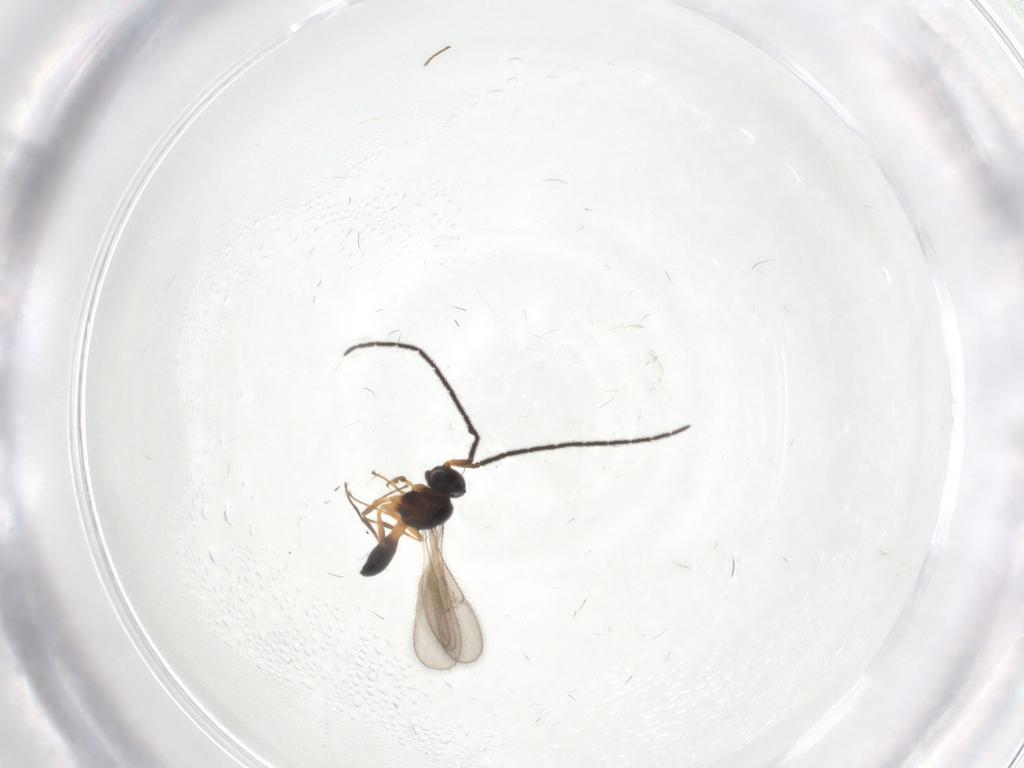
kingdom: Animalia
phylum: Arthropoda
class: Insecta
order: Hymenoptera
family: Scelionidae
